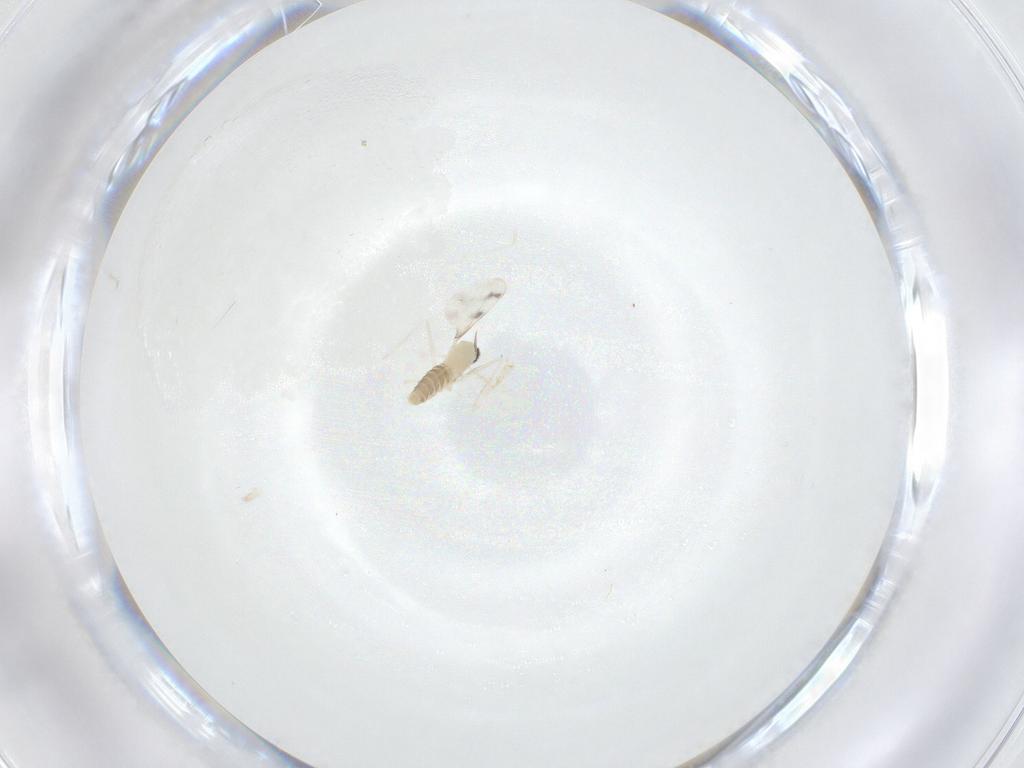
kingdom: Animalia
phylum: Arthropoda
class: Insecta
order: Diptera
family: Cecidomyiidae
